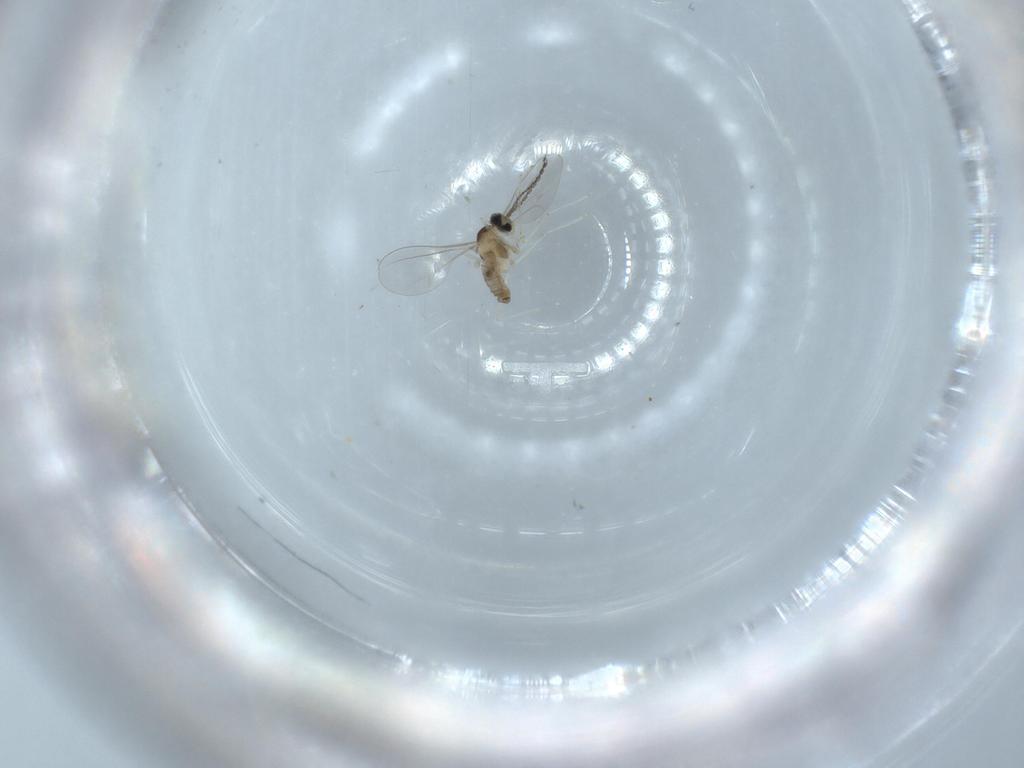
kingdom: Animalia
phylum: Arthropoda
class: Insecta
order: Diptera
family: Cecidomyiidae
